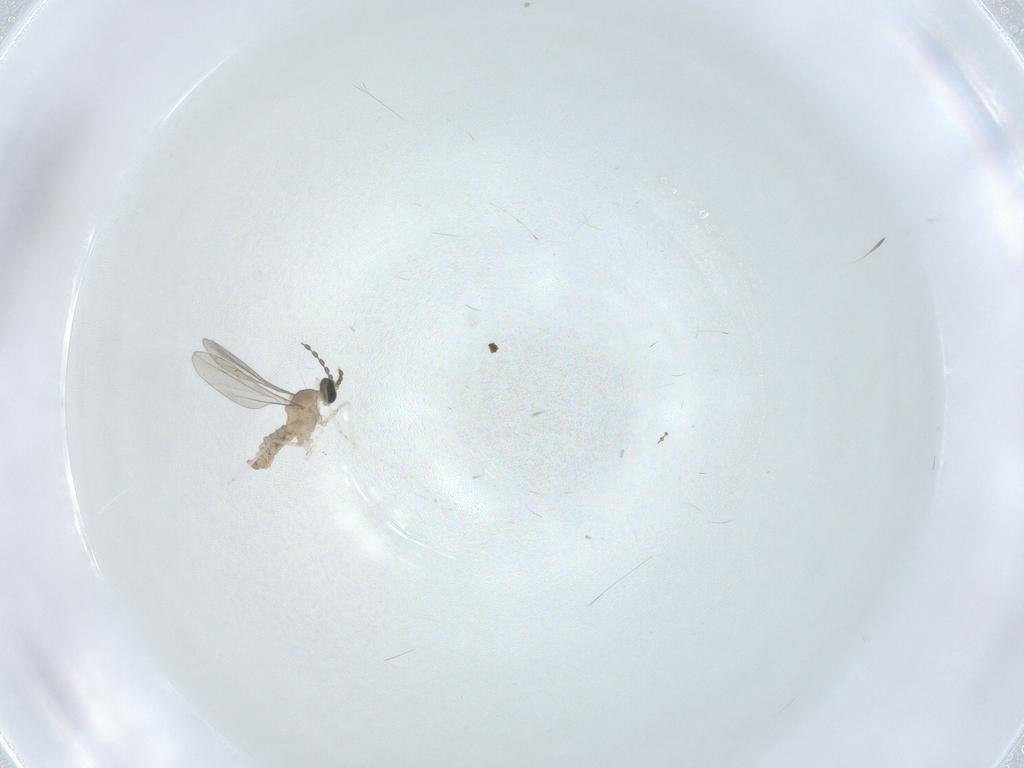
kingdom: Animalia
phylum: Arthropoda
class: Insecta
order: Diptera
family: Cecidomyiidae
